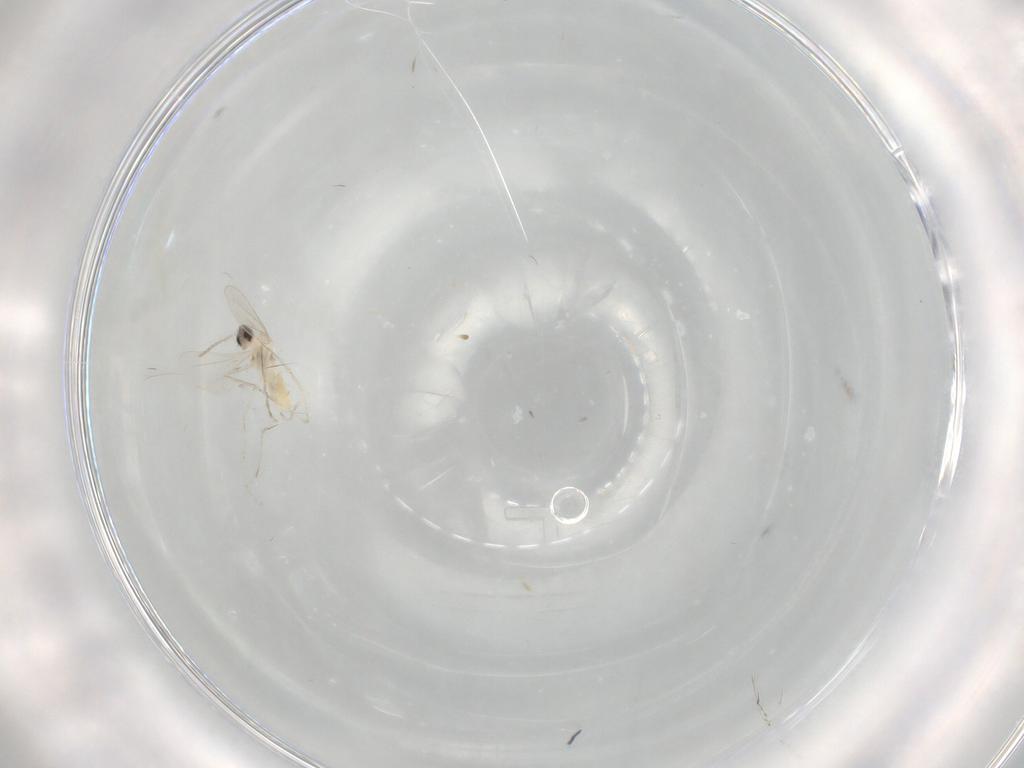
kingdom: Animalia
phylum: Arthropoda
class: Insecta
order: Diptera
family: Cecidomyiidae
